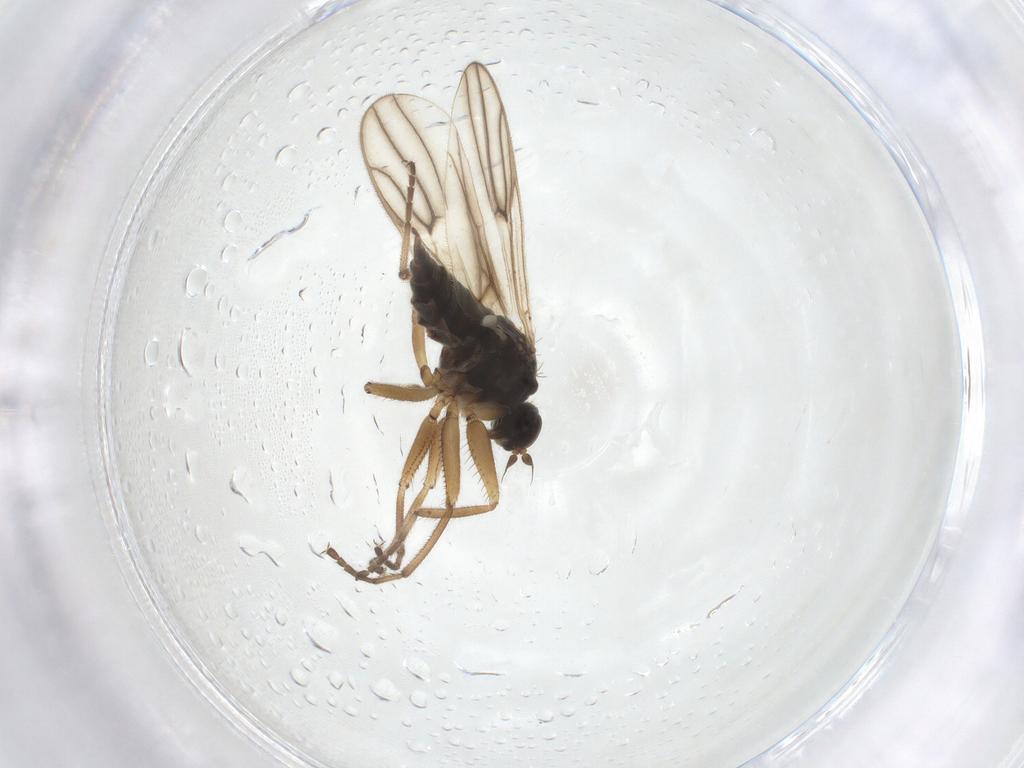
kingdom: Animalia
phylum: Arthropoda
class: Insecta
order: Diptera
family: Hybotidae
